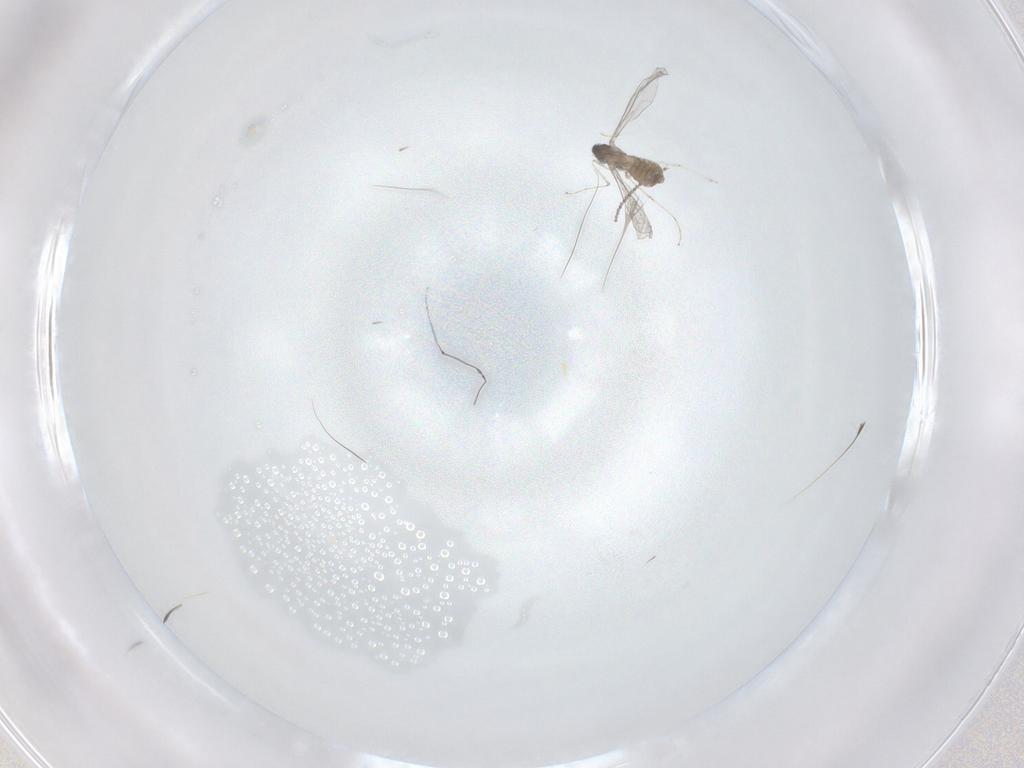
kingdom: Animalia
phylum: Arthropoda
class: Insecta
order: Diptera
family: Cecidomyiidae
